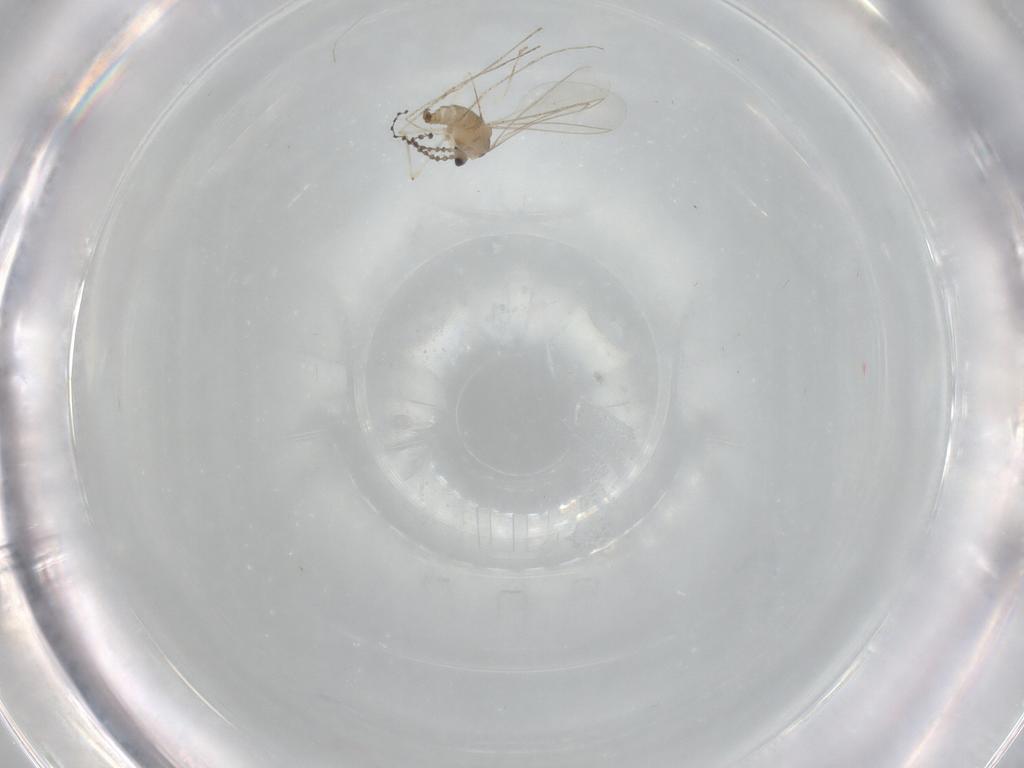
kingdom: Animalia
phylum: Arthropoda
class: Insecta
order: Diptera
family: Cecidomyiidae
